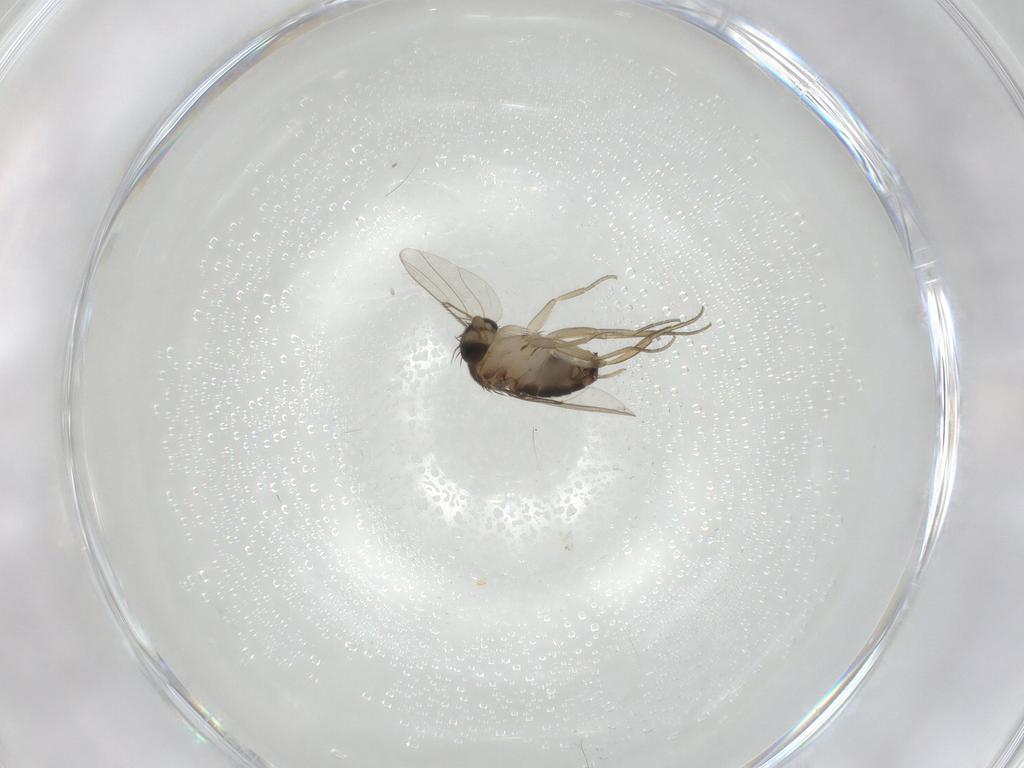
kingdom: Animalia
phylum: Arthropoda
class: Insecta
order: Diptera
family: Phoridae
